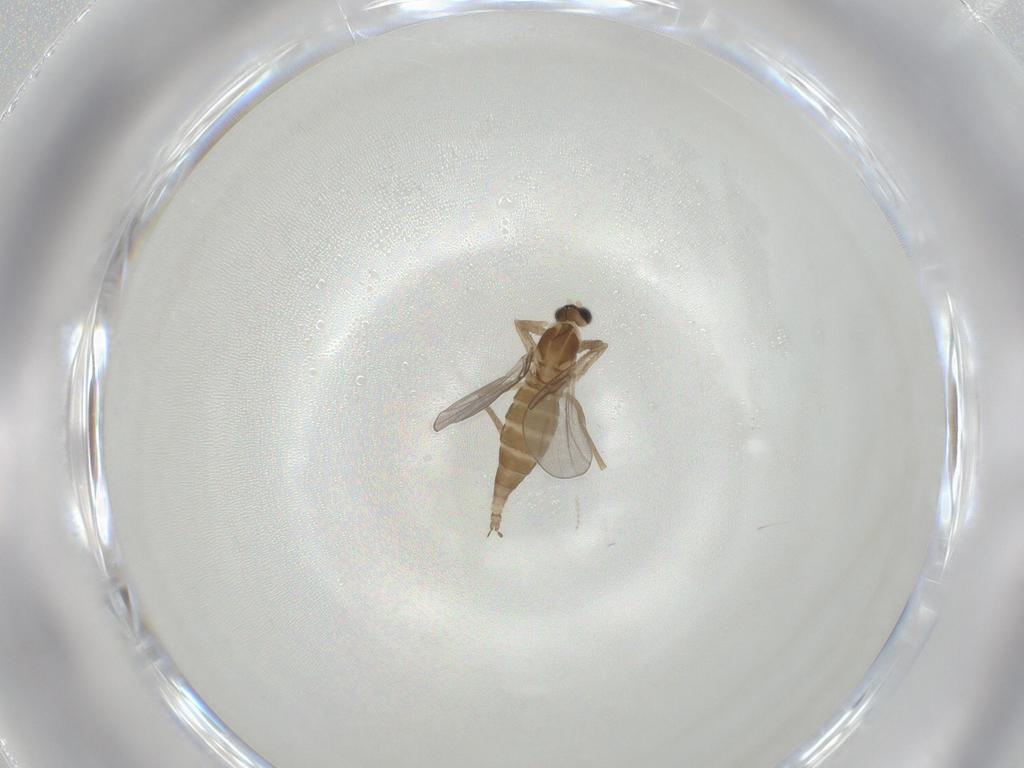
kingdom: Animalia
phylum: Arthropoda
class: Insecta
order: Diptera
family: Cecidomyiidae
